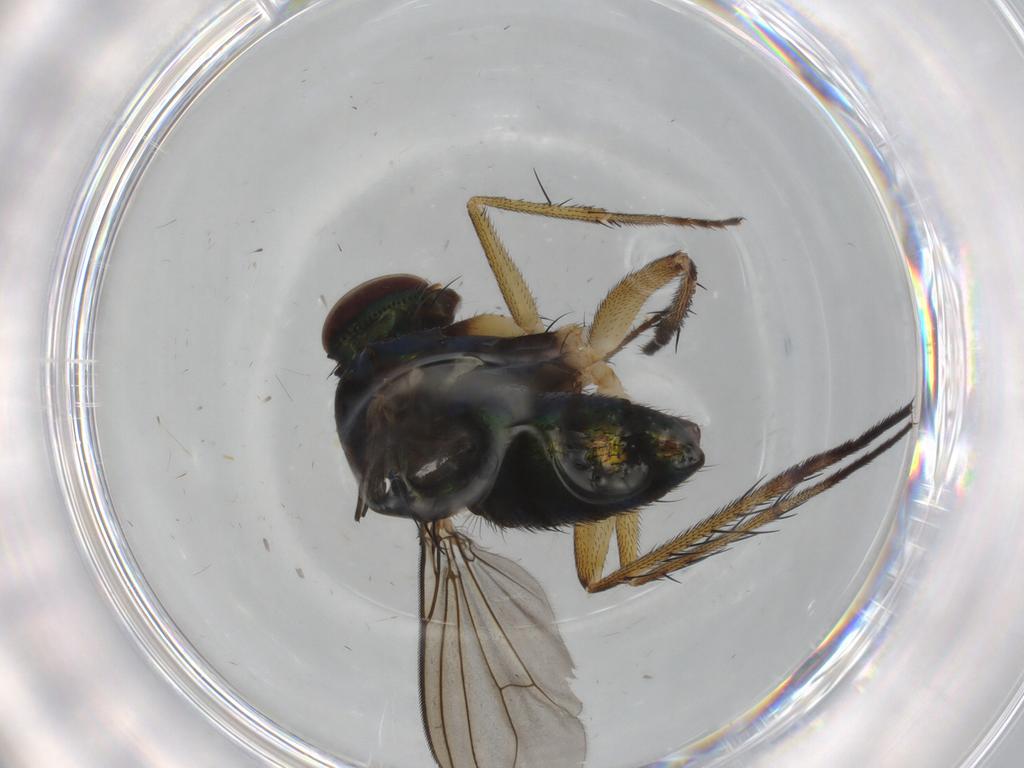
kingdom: Animalia
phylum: Arthropoda
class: Insecta
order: Diptera
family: Dolichopodidae
